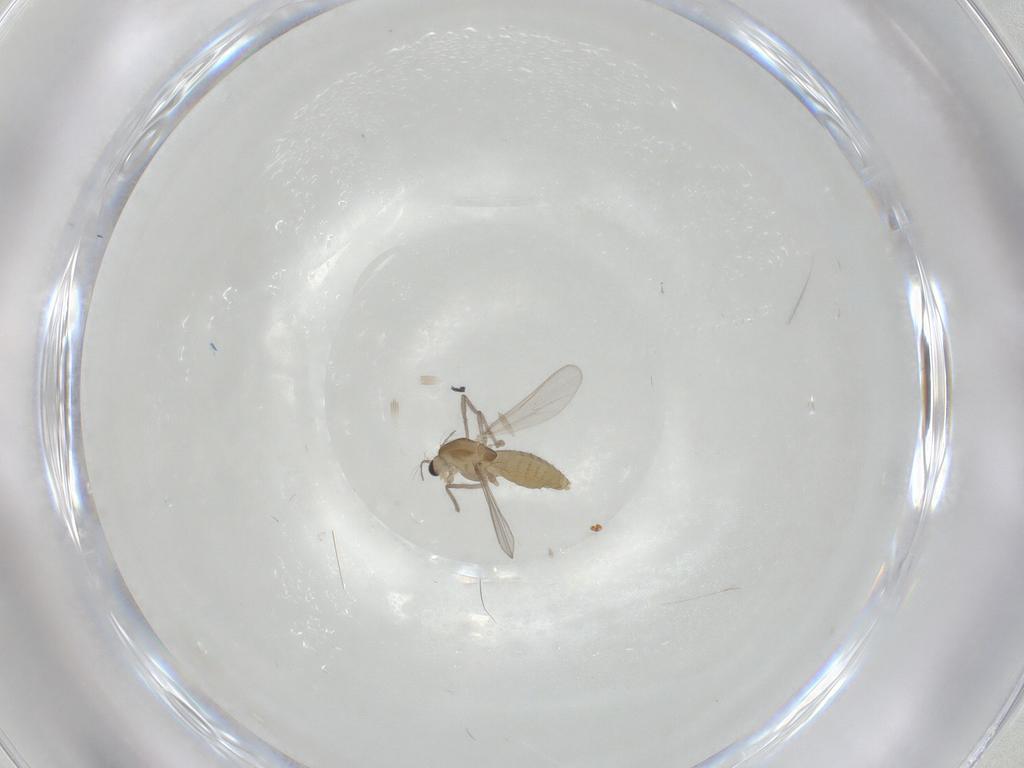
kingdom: Animalia
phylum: Arthropoda
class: Insecta
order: Diptera
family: Chironomidae
